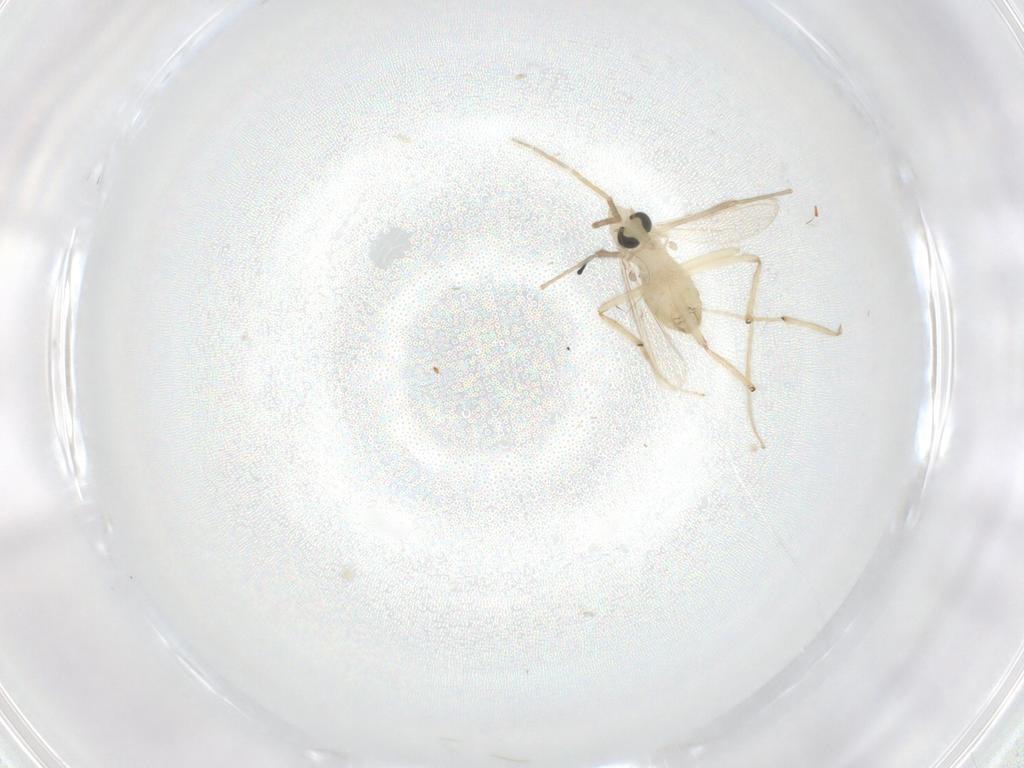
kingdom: Animalia
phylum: Arthropoda
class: Insecta
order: Diptera
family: Chironomidae
